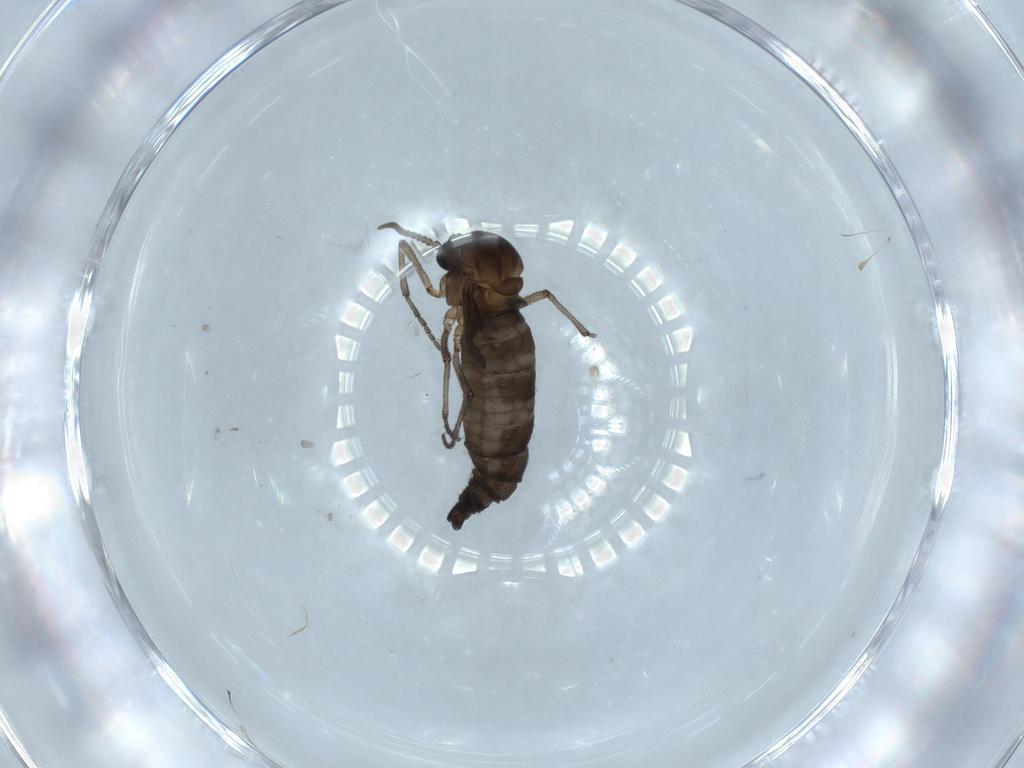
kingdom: Animalia
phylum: Arthropoda
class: Insecta
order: Diptera
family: Sciaridae
